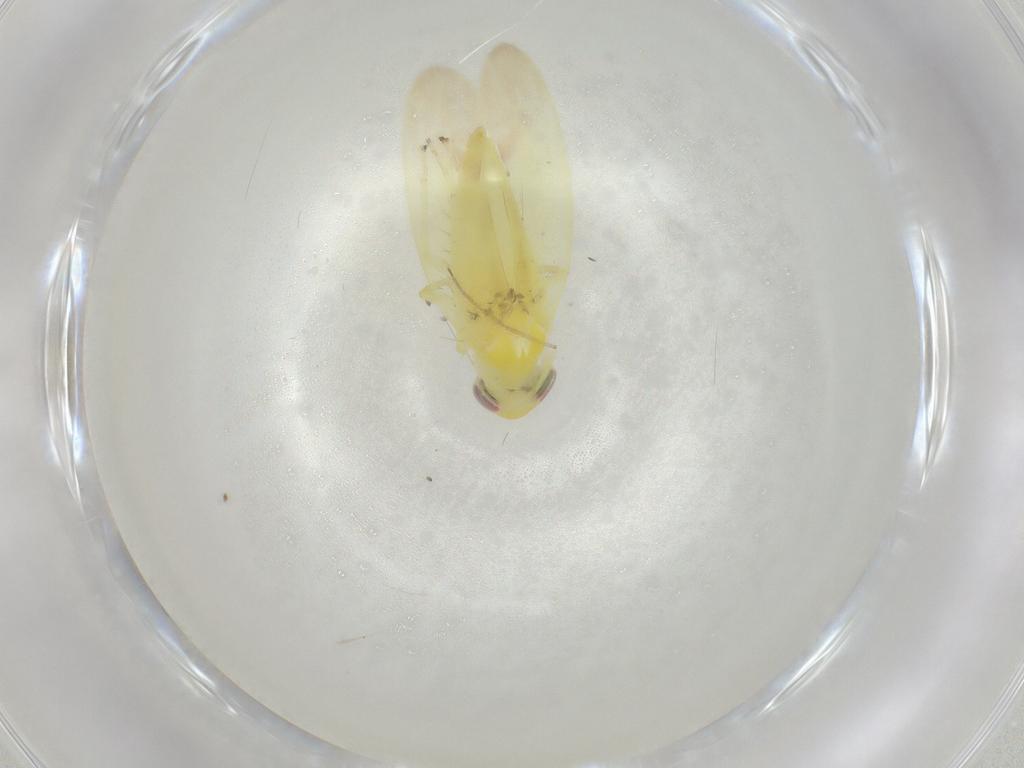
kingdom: Animalia
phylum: Arthropoda
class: Insecta
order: Hemiptera
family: Cicadellidae
